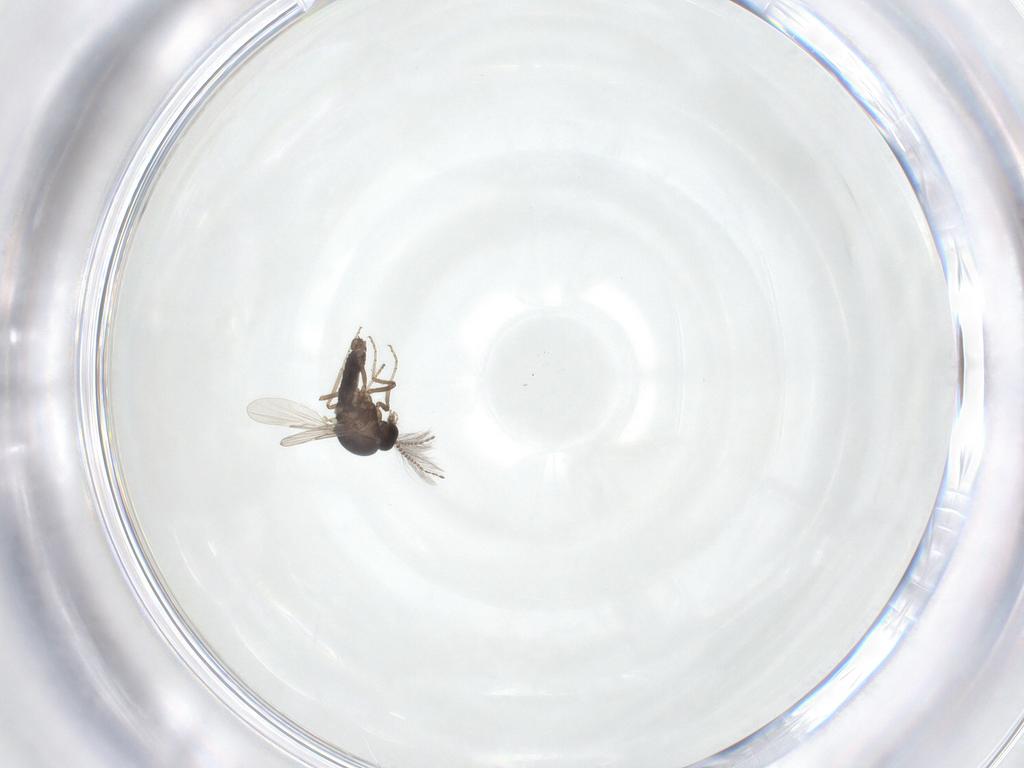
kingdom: Animalia
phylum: Arthropoda
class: Insecta
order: Diptera
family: Ceratopogonidae
